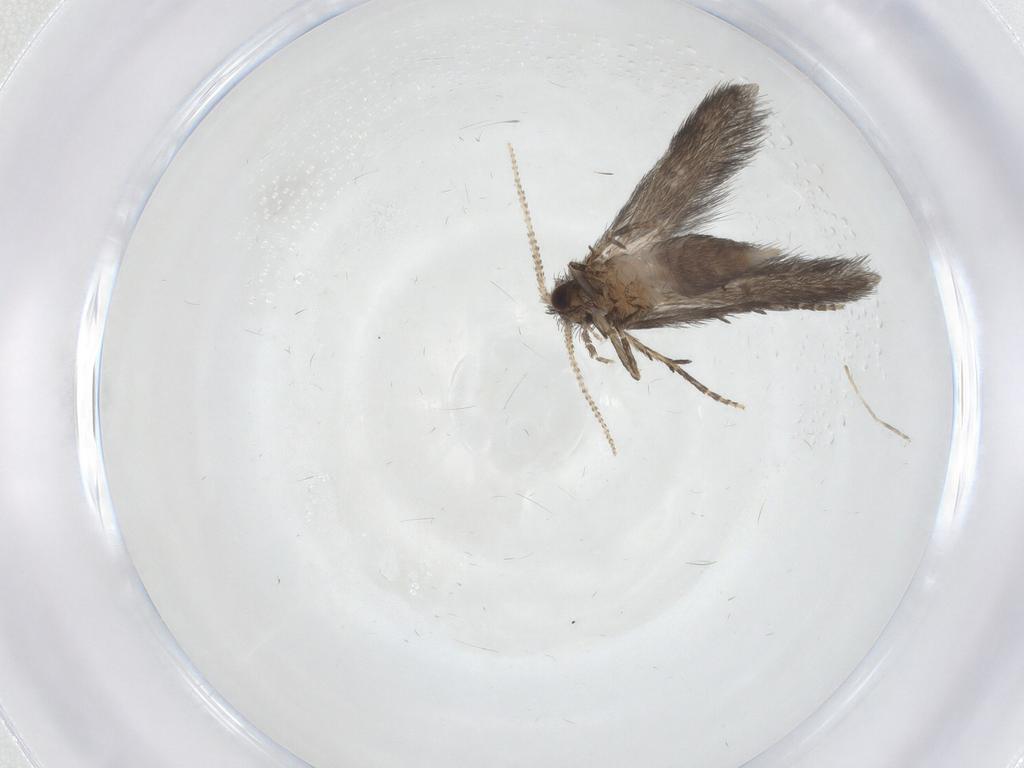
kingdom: Animalia
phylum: Arthropoda
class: Insecta
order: Trichoptera
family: Hydroptilidae
